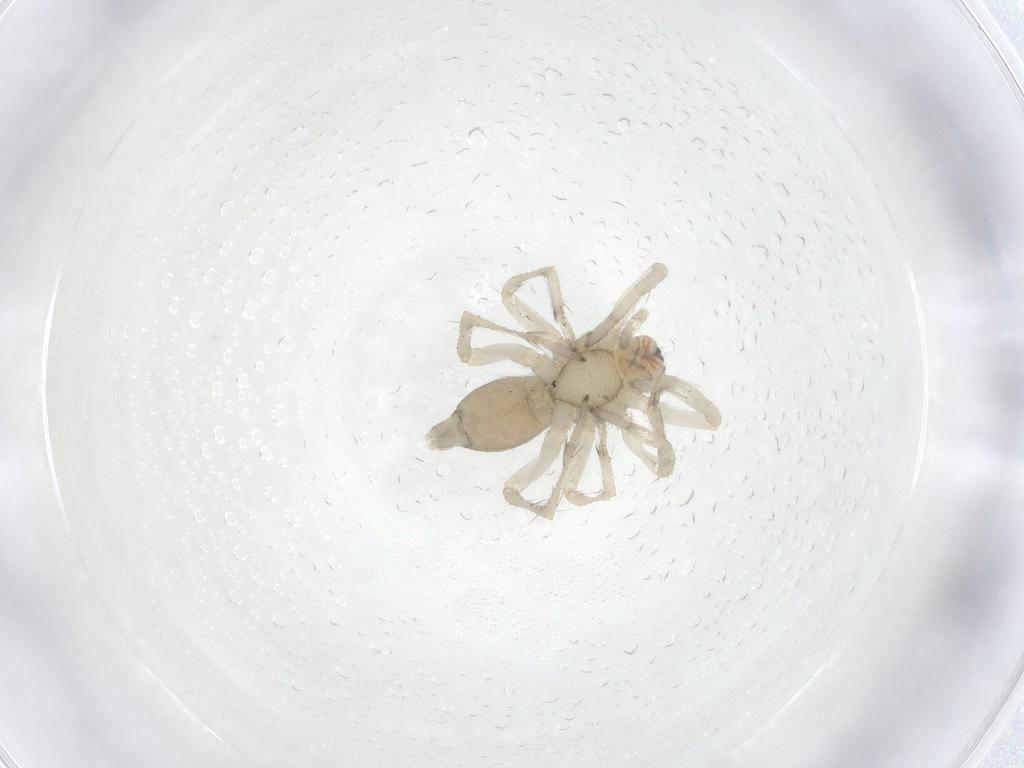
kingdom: Animalia
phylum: Arthropoda
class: Arachnida
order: Araneae
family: Anyphaenidae
